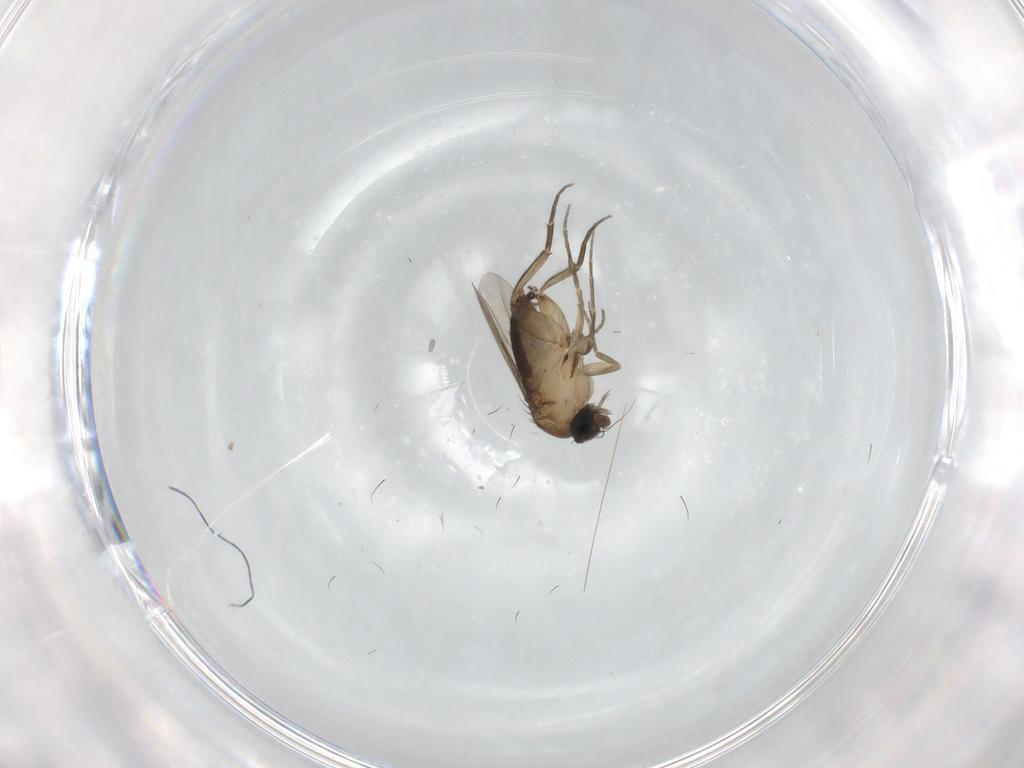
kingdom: Animalia
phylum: Arthropoda
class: Insecta
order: Diptera
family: Phoridae
